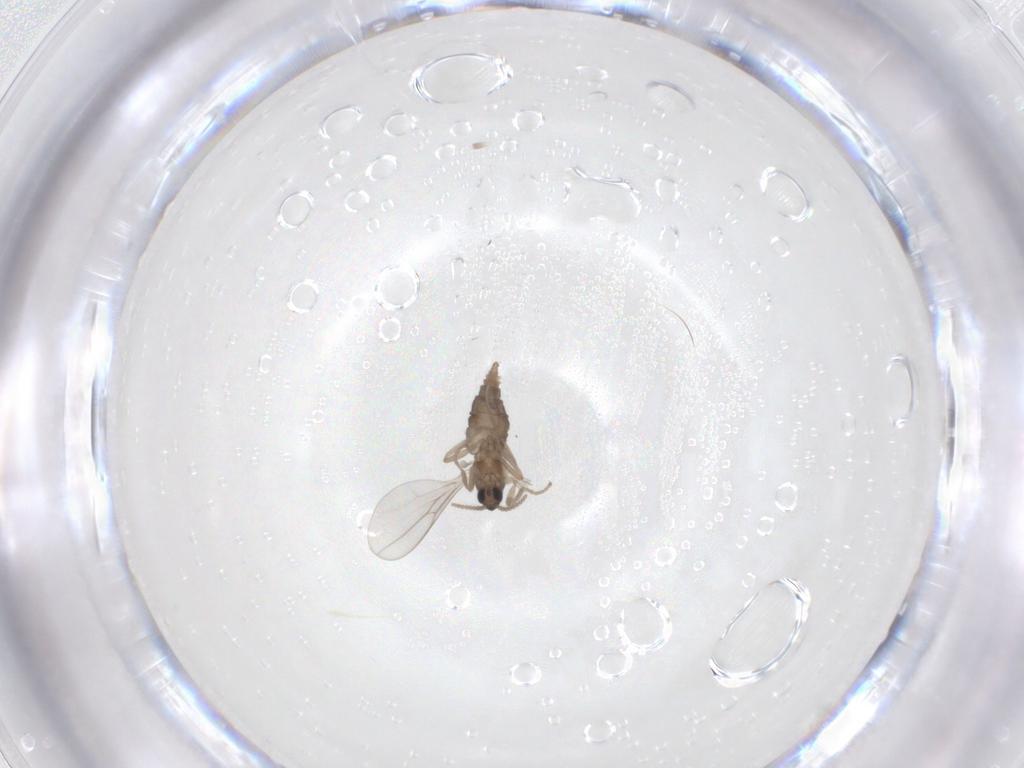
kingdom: Animalia
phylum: Arthropoda
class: Insecta
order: Diptera
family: Cecidomyiidae
